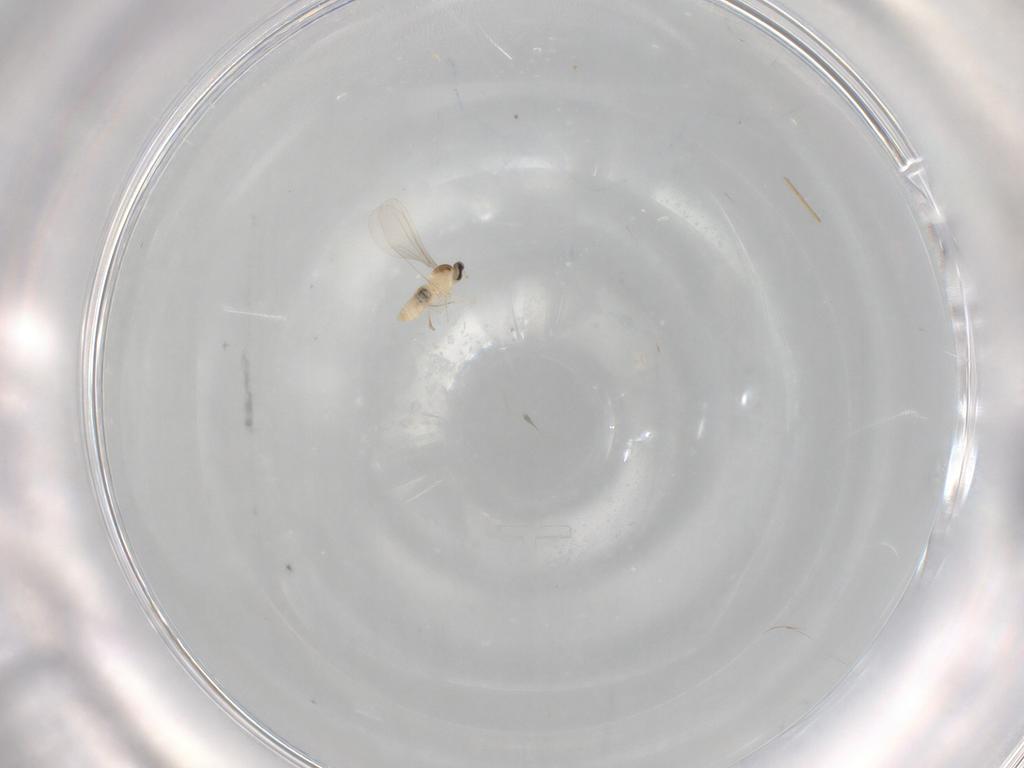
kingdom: Animalia
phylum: Arthropoda
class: Insecta
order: Diptera
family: Cecidomyiidae
